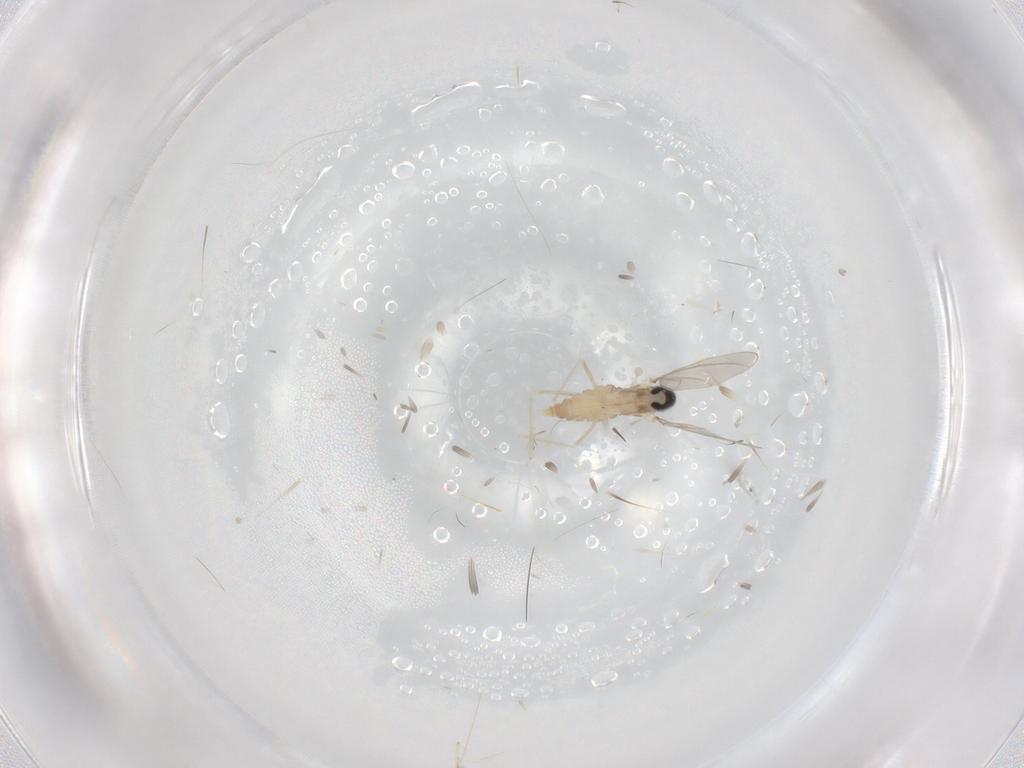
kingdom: Animalia
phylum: Arthropoda
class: Insecta
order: Diptera
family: Cecidomyiidae
